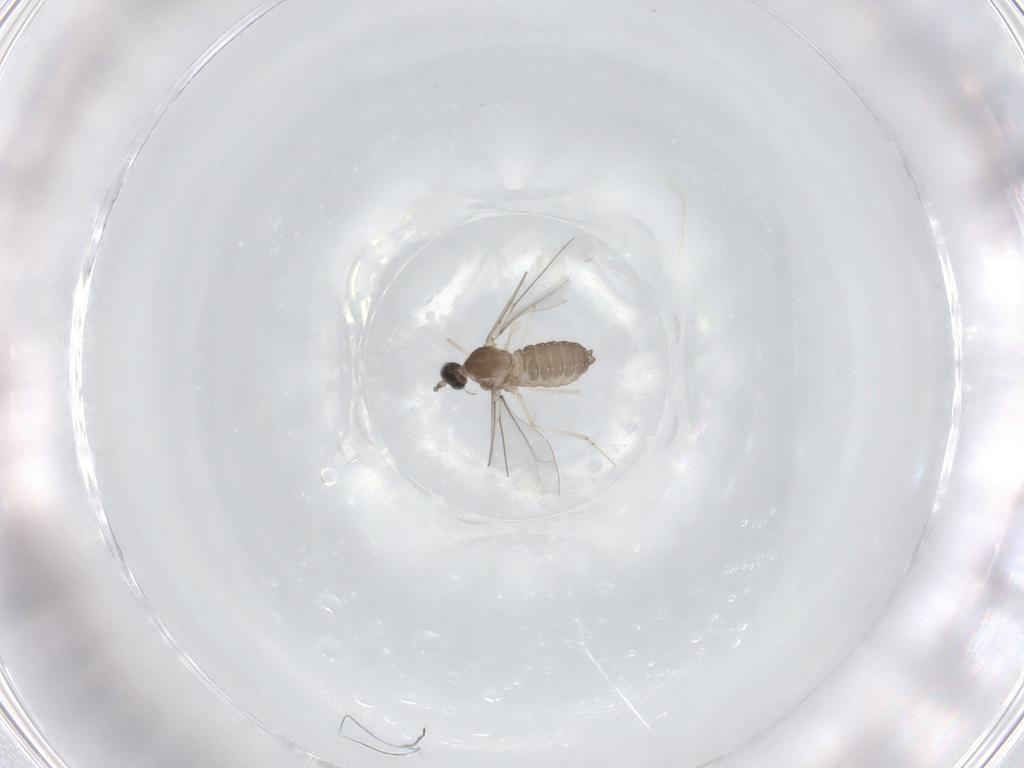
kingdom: Animalia
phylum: Arthropoda
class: Insecta
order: Diptera
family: Cecidomyiidae
